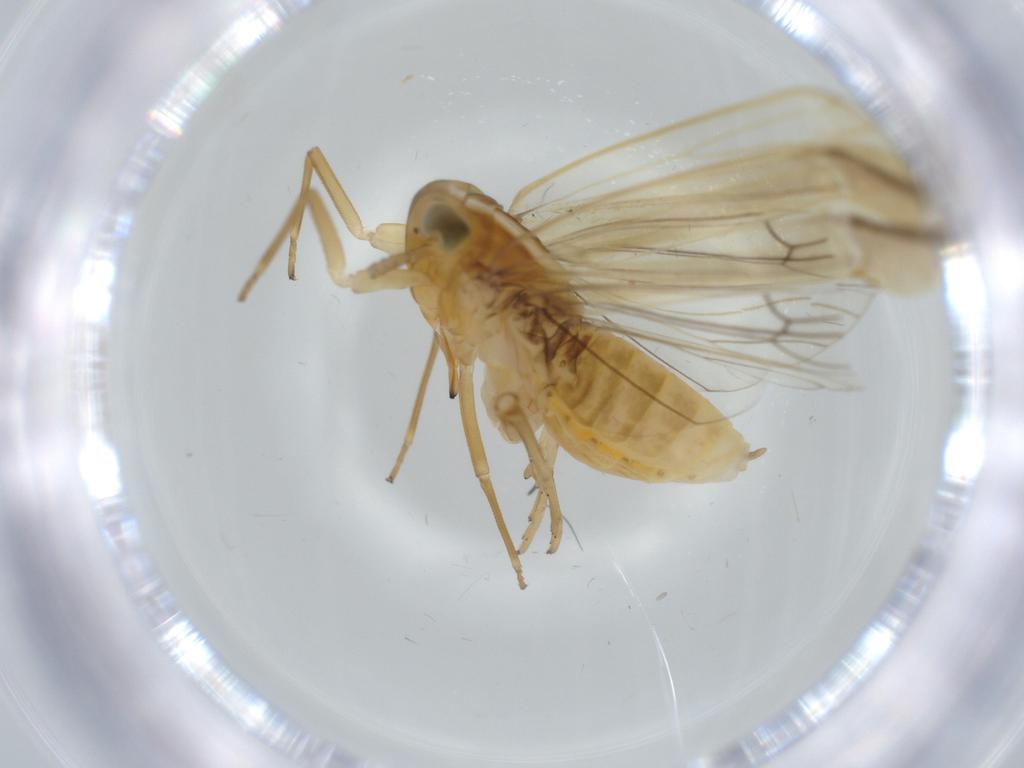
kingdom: Animalia
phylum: Arthropoda
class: Insecta
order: Hemiptera
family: Delphacidae
